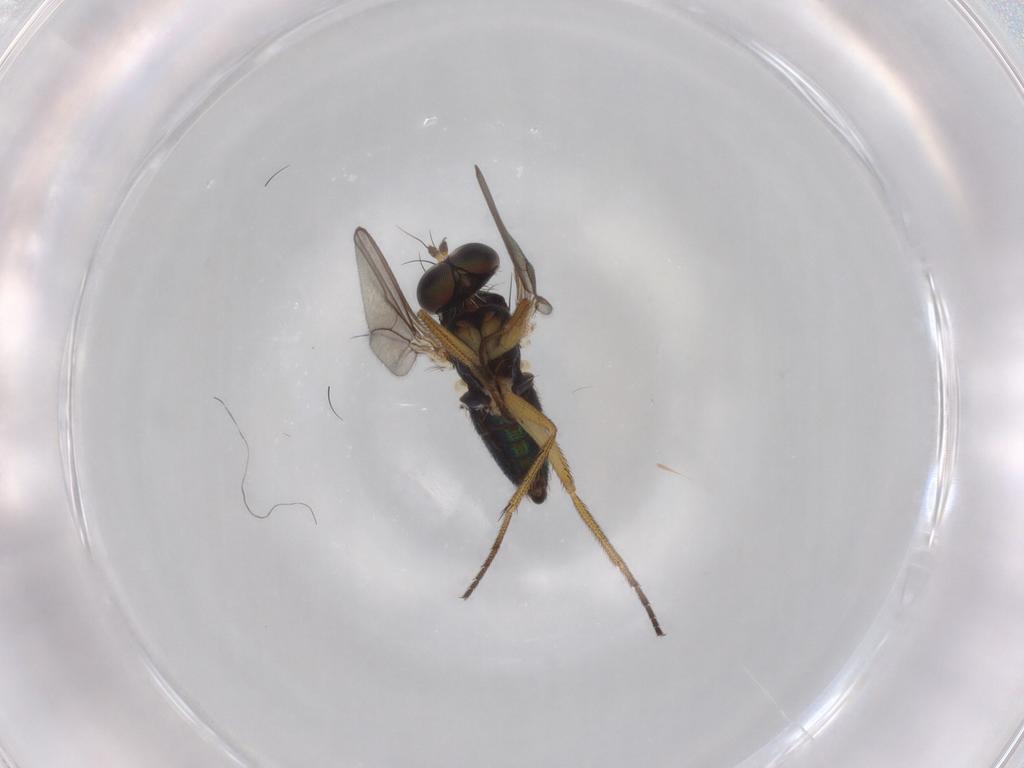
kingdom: Animalia
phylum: Arthropoda
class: Insecta
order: Diptera
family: Dolichopodidae
